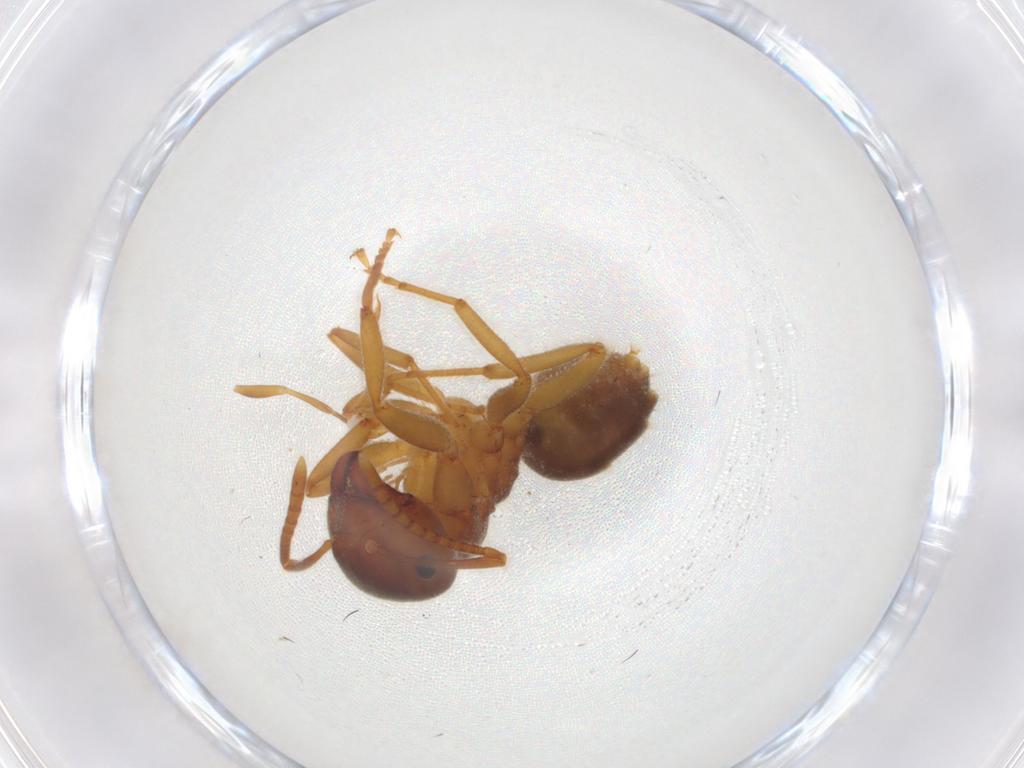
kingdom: Animalia
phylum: Arthropoda
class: Insecta
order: Hymenoptera
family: Formicidae
